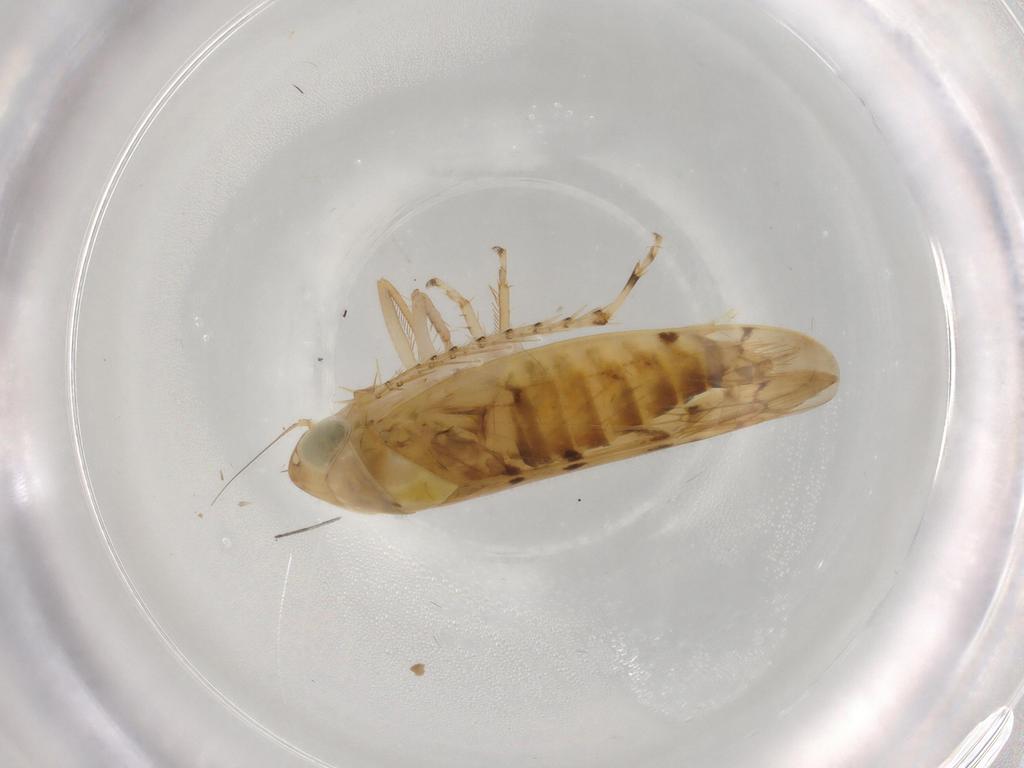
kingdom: Animalia
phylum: Arthropoda
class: Insecta
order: Hemiptera
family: Cicadellidae
